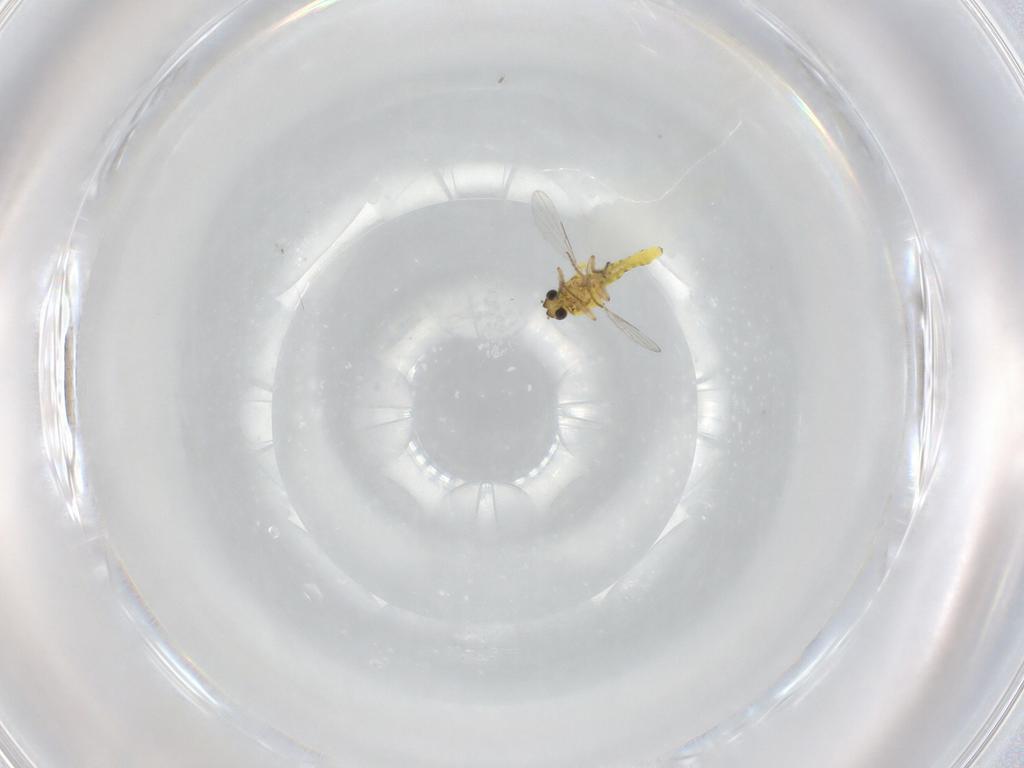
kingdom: Animalia
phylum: Arthropoda
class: Insecta
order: Diptera
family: Ceratopogonidae
